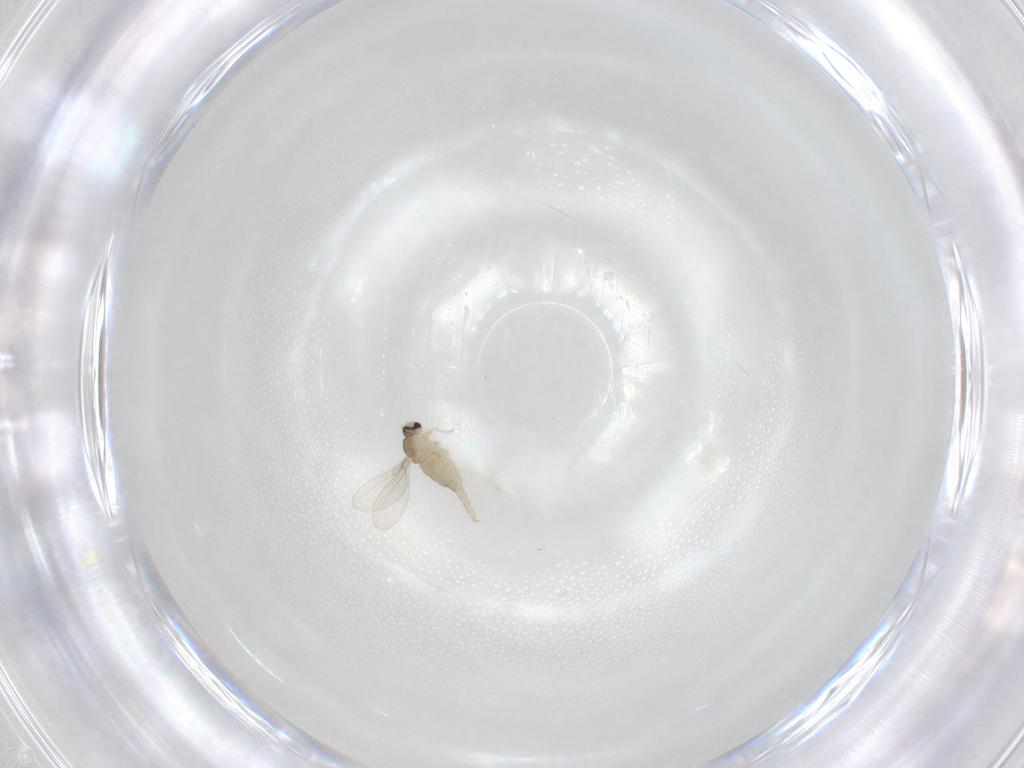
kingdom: Animalia
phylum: Arthropoda
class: Insecta
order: Diptera
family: Cecidomyiidae
